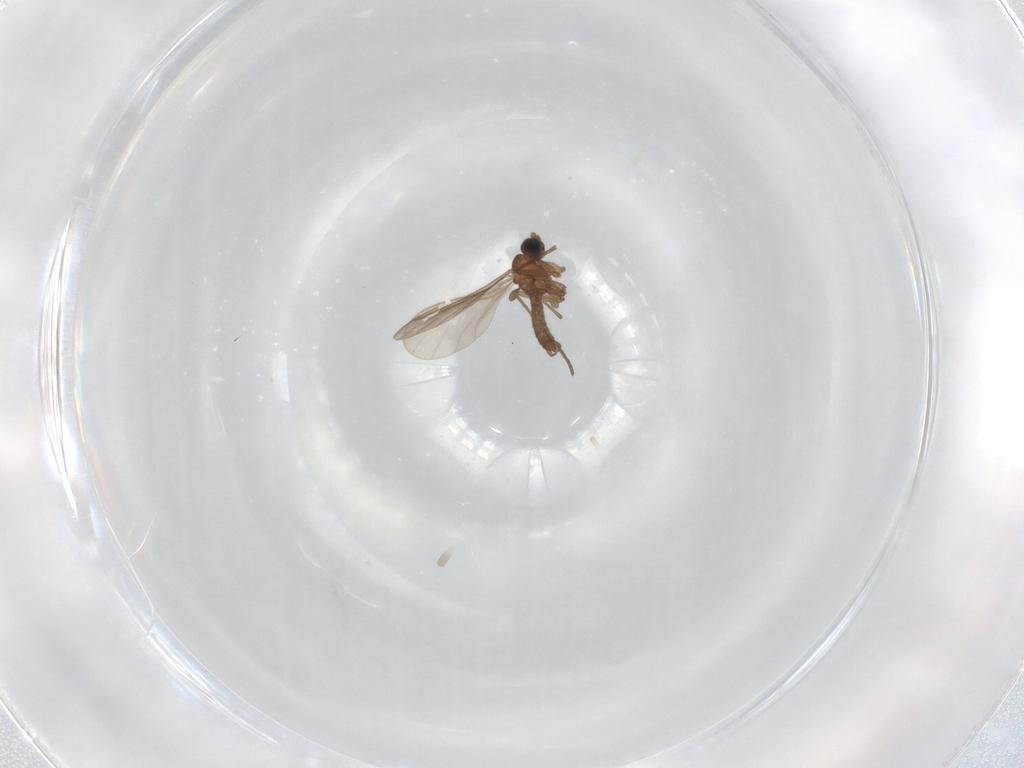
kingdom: Animalia
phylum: Arthropoda
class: Insecta
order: Diptera
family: Sciaridae
